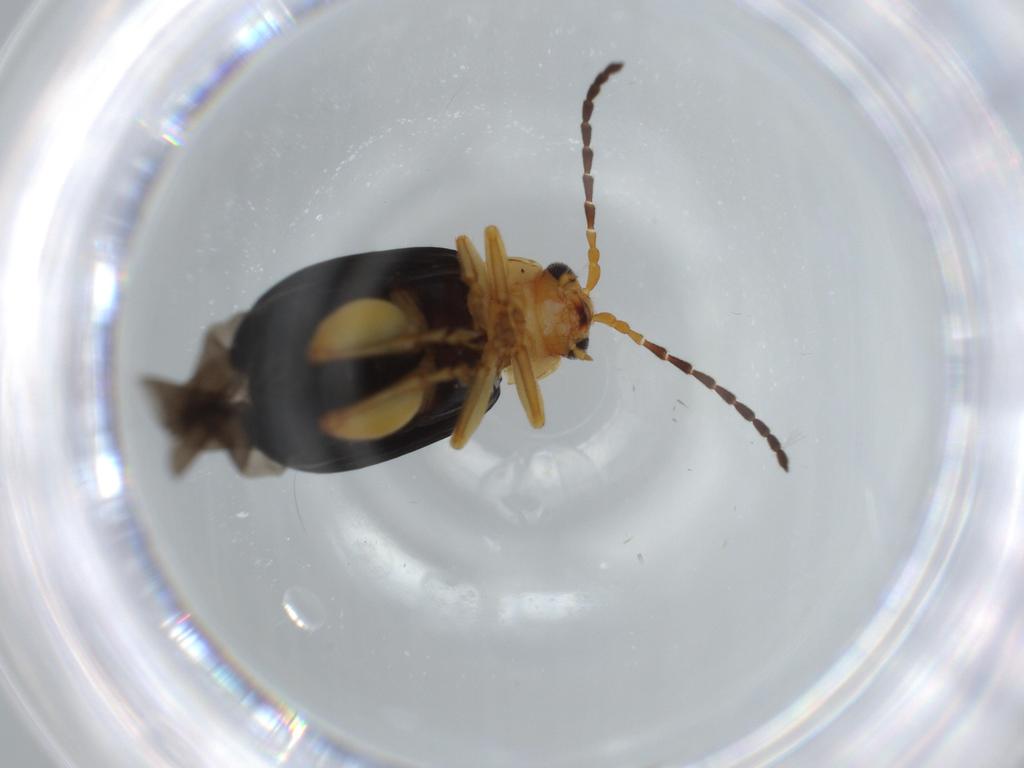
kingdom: Animalia
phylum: Arthropoda
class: Insecta
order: Coleoptera
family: Chrysomelidae
